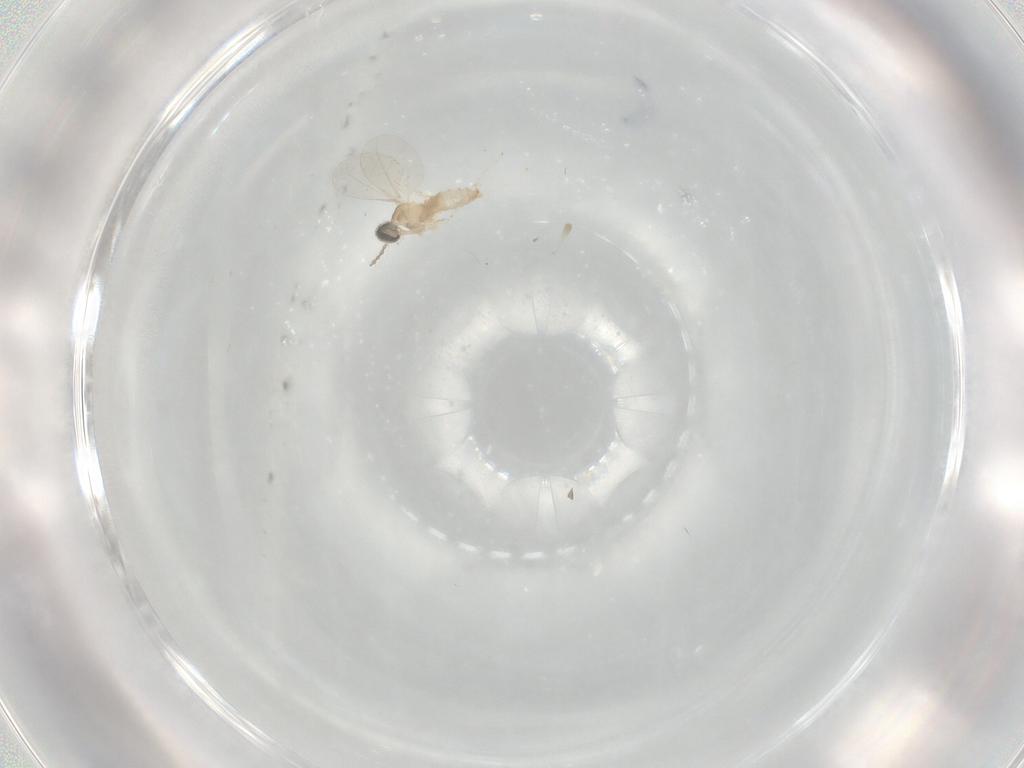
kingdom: Animalia
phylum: Arthropoda
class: Insecta
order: Diptera
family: Cecidomyiidae
